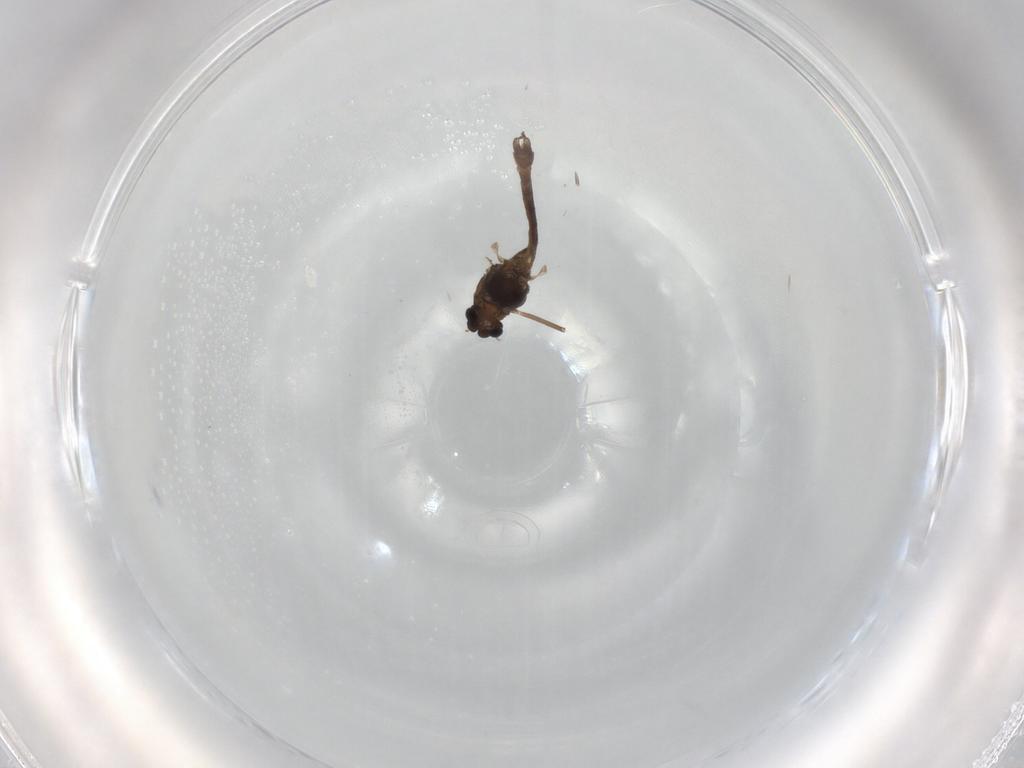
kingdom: Animalia
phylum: Arthropoda
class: Insecta
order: Diptera
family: Chironomidae
